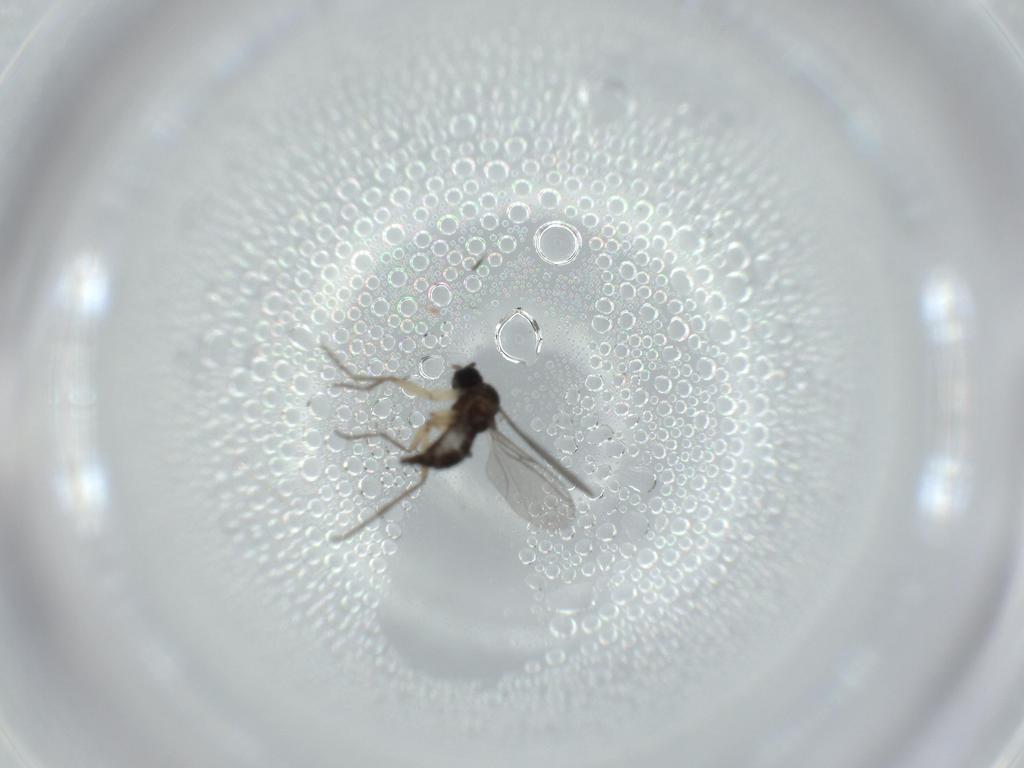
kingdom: Animalia
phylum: Arthropoda
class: Insecta
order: Diptera
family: Sciaridae
